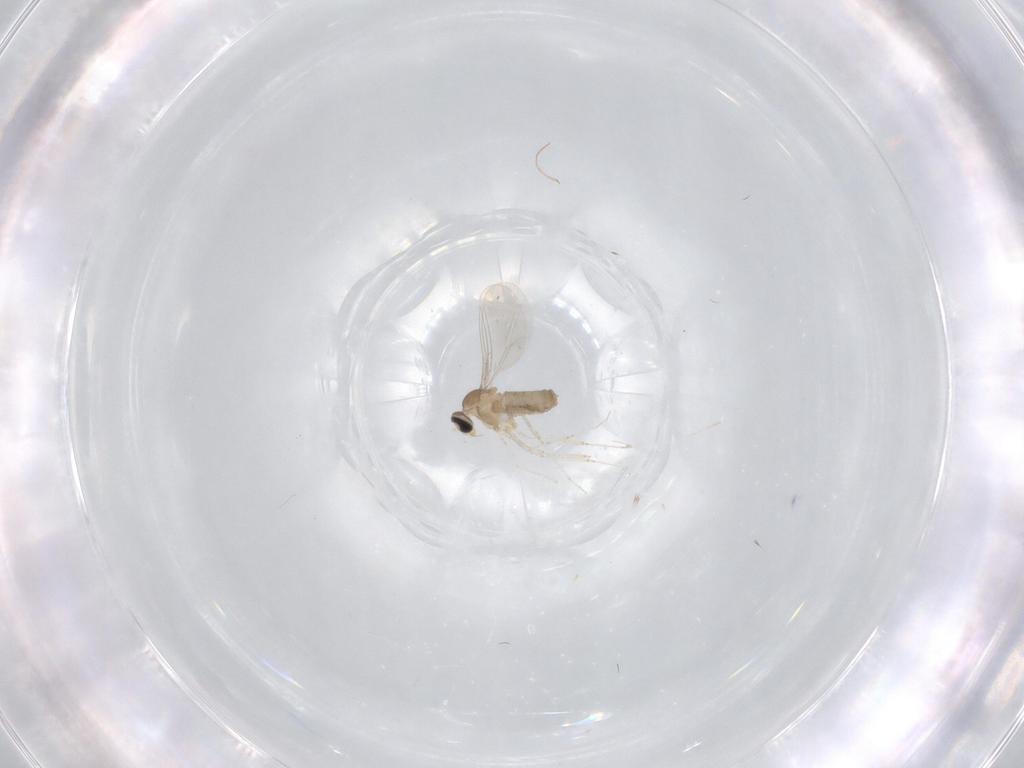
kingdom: Animalia
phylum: Arthropoda
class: Insecta
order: Diptera
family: Cecidomyiidae
